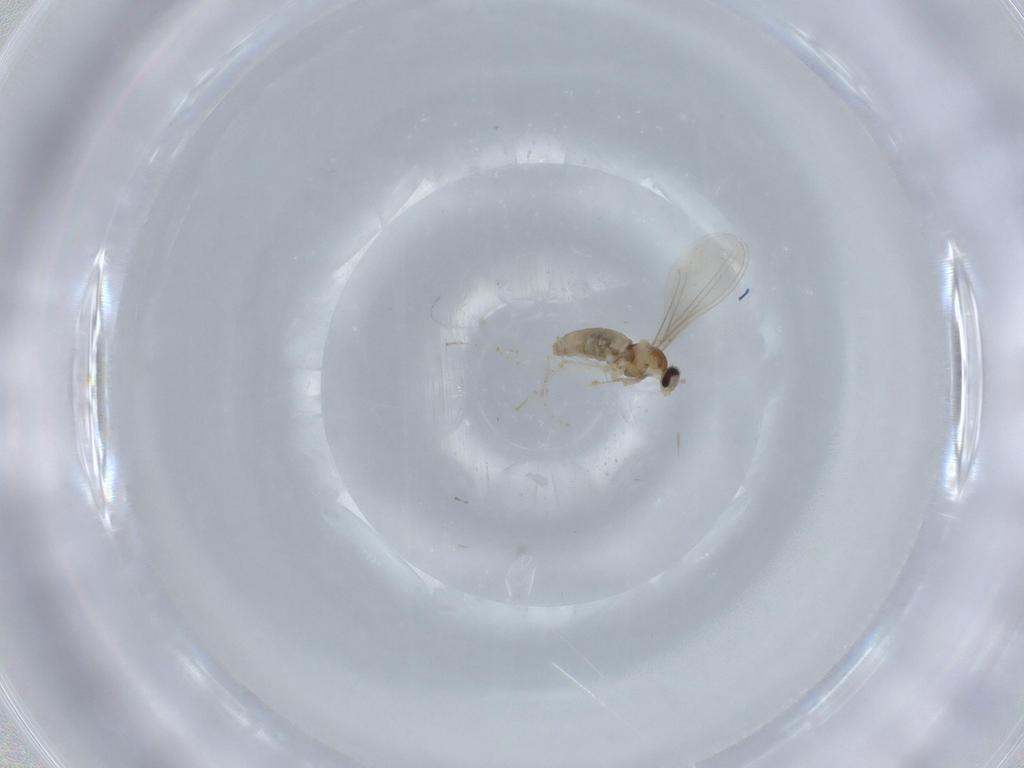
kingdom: Animalia
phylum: Arthropoda
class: Insecta
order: Diptera
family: Cecidomyiidae
